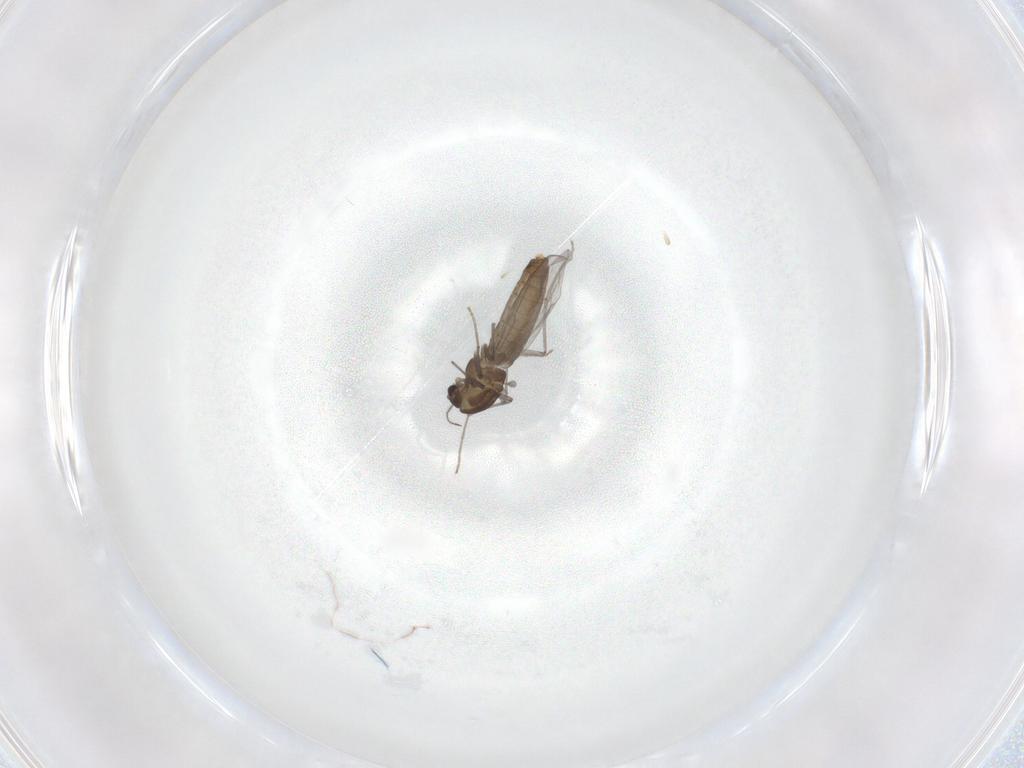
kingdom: Animalia
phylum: Arthropoda
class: Insecta
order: Diptera
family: Chironomidae
